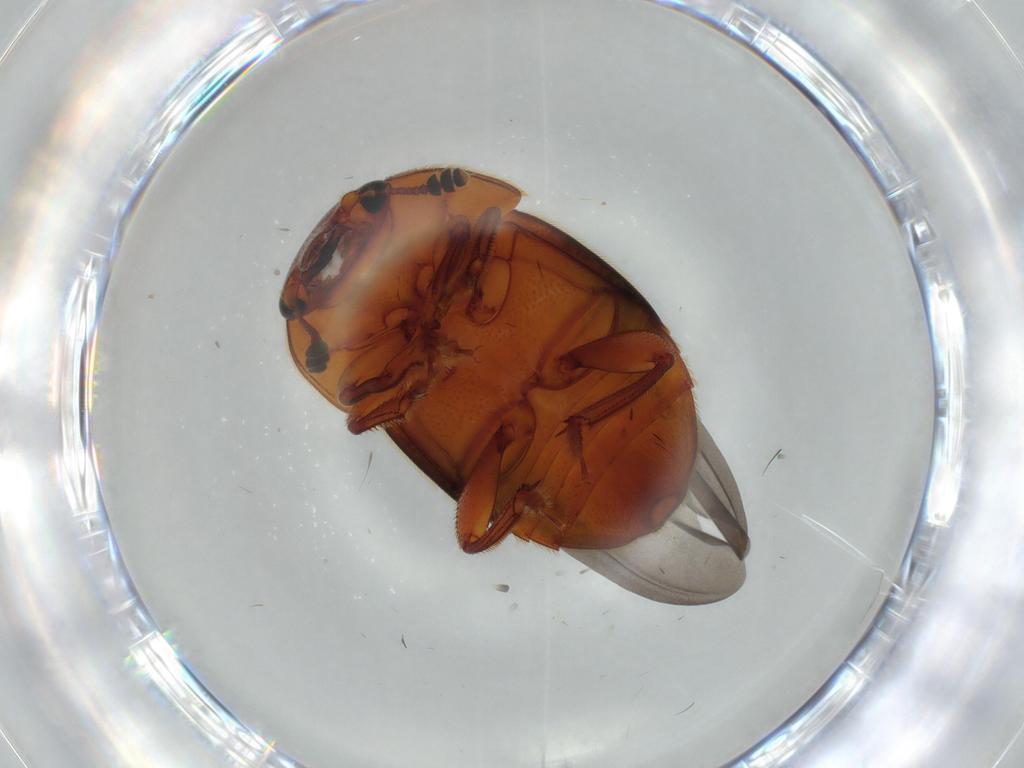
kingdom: Animalia
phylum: Arthropoda
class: Insecta
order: Coleoptera
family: Nitidulidae
